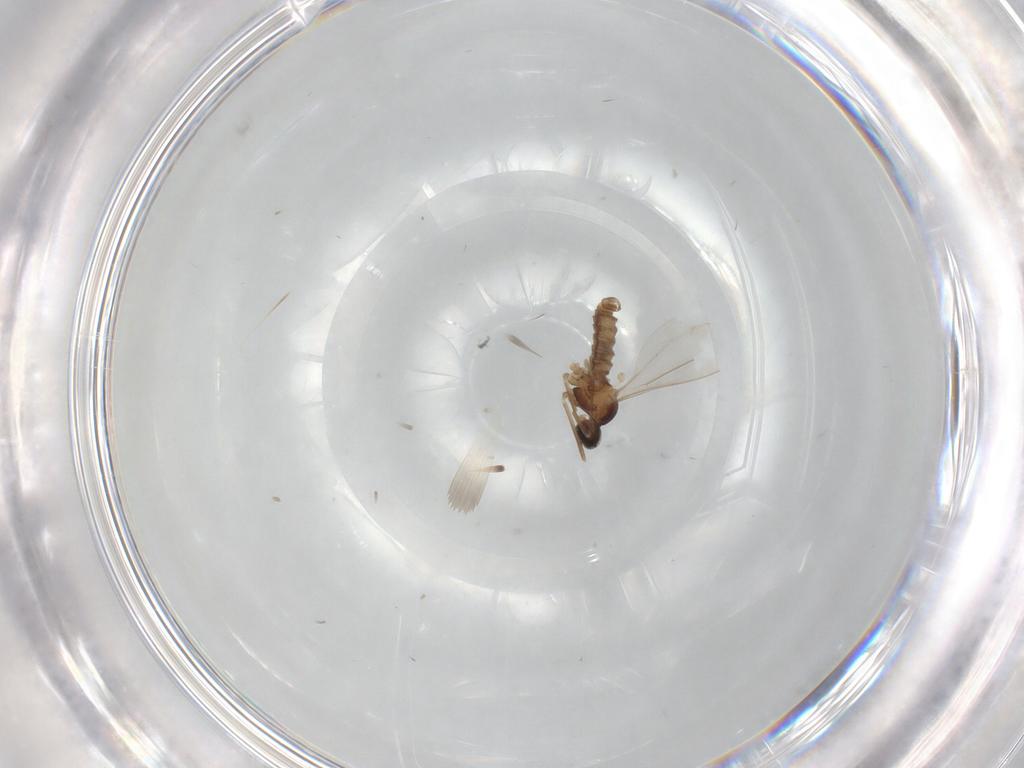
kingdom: Animalia
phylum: Arthropoda
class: Insecta
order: Diptera
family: Cecidomyiidae
